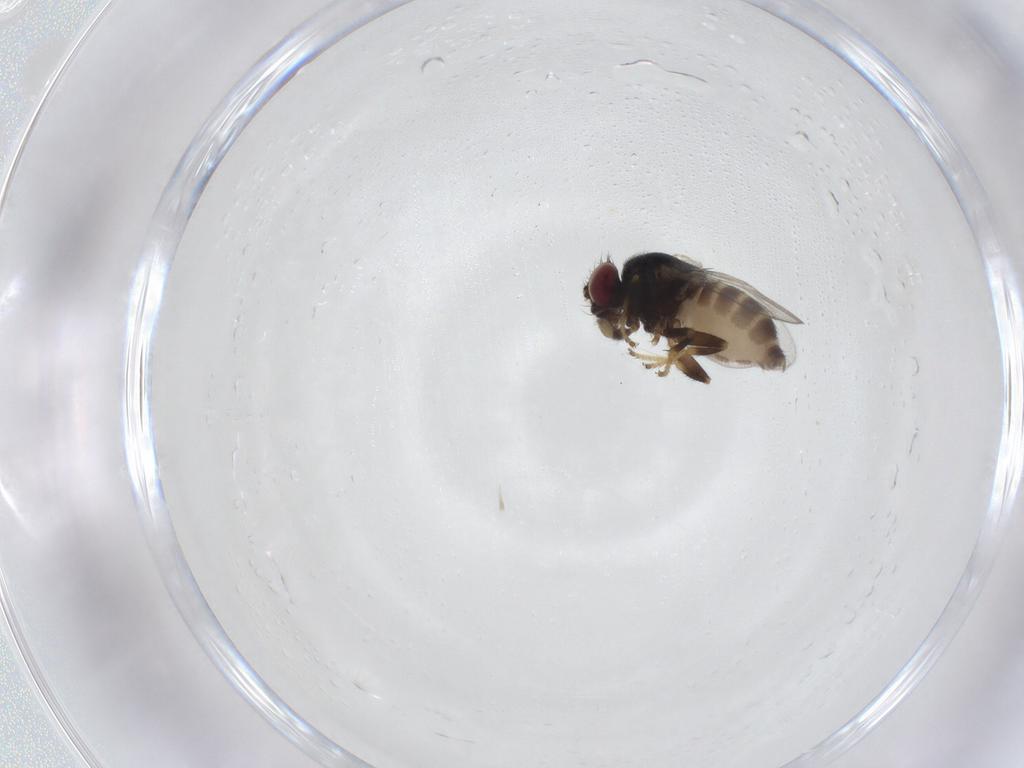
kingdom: Animalia
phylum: Arthropoda
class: Insecta
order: Diptera
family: Chloropidae
